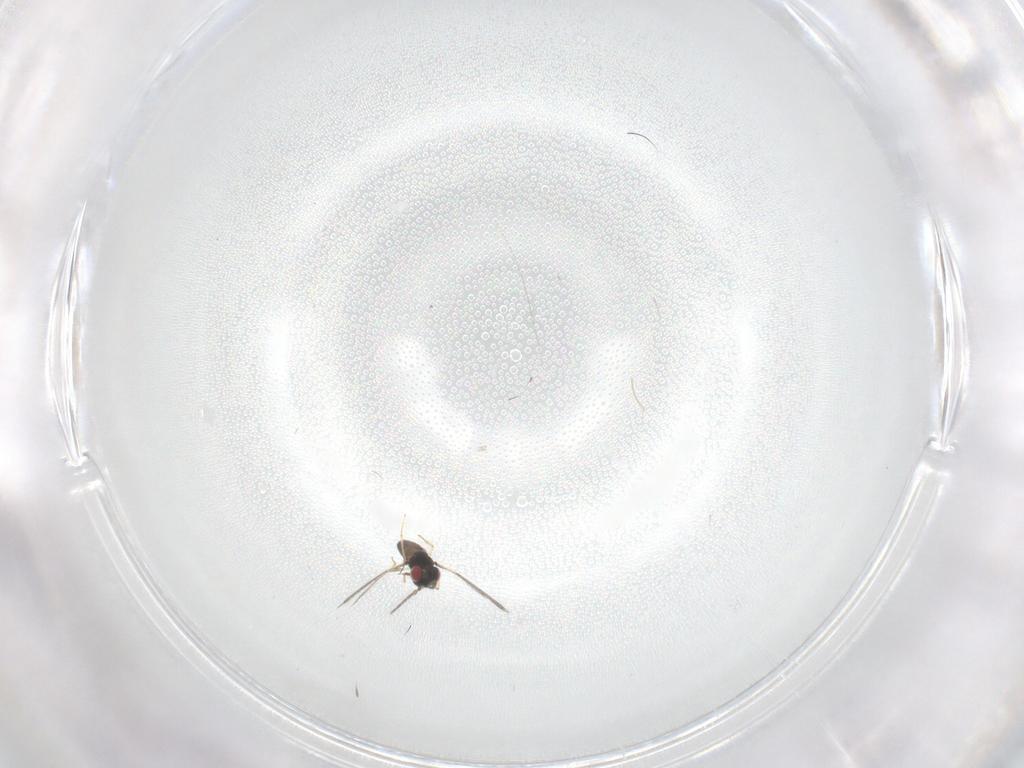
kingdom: Animalia
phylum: Arthropoda
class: Insecta
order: Hymenoptera
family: Eulophidae
